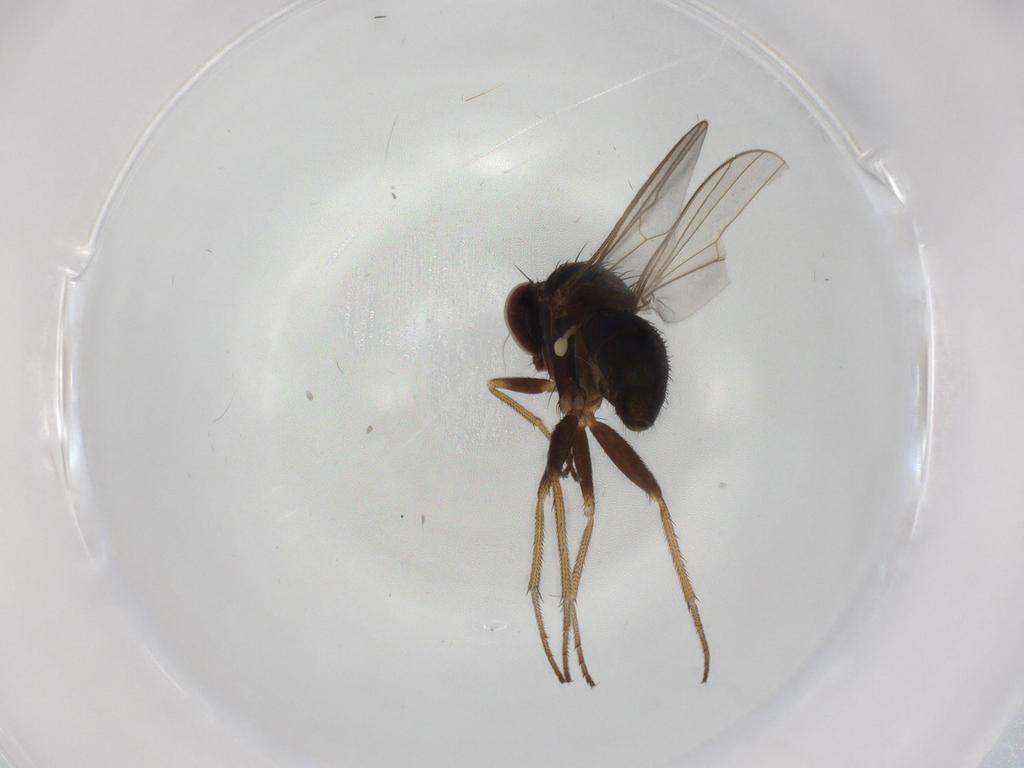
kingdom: Animalia
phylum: Arthropoda
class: Insecta
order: Diptera
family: Dolichopodidae
